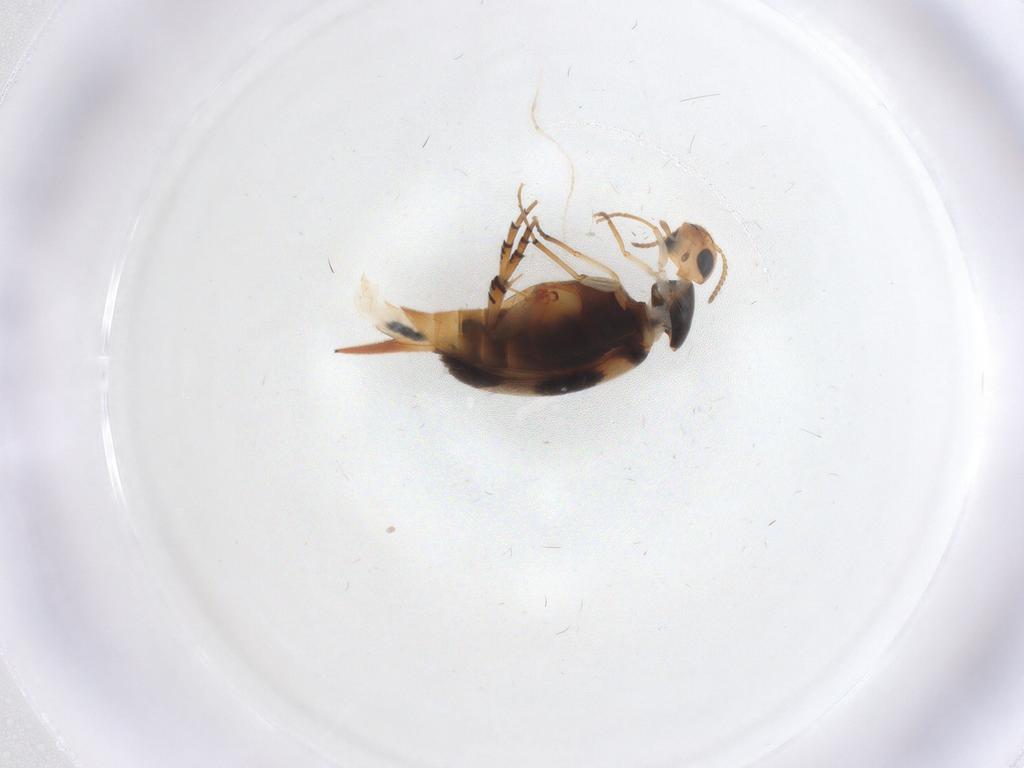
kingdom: Animalia
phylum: Arthropoda
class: Insecta
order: Coleoptera
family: Mordellidae
